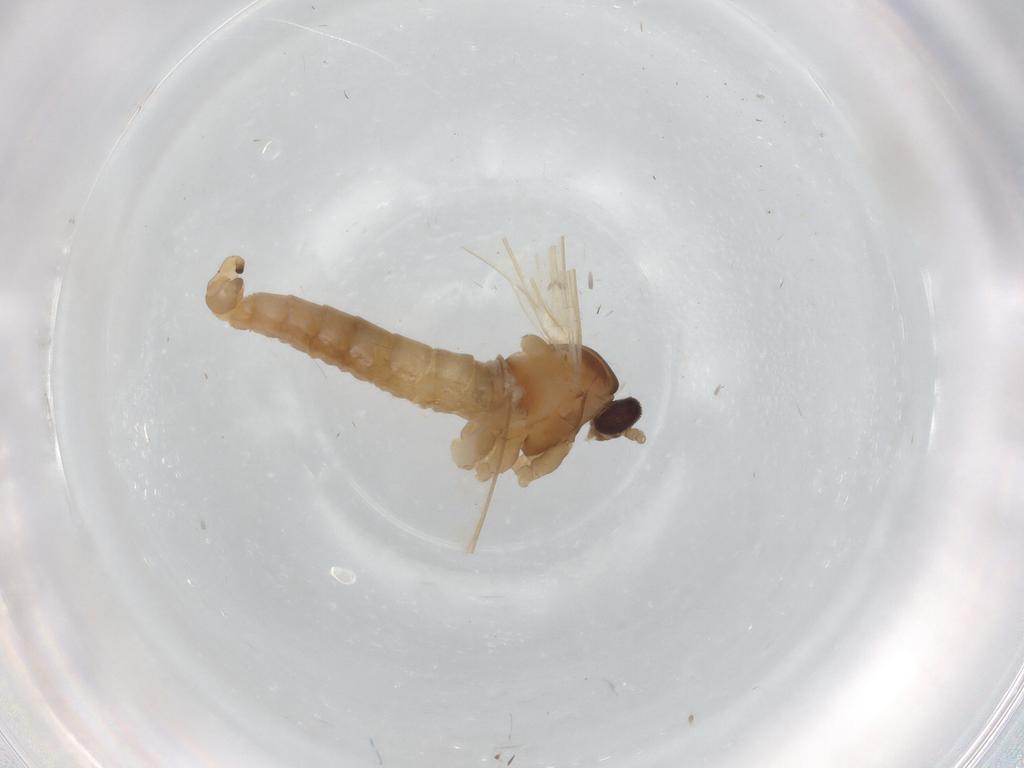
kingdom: Animalia
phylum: Arthropoda
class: Insecta
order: Diptera
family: Cecidomyiidae
